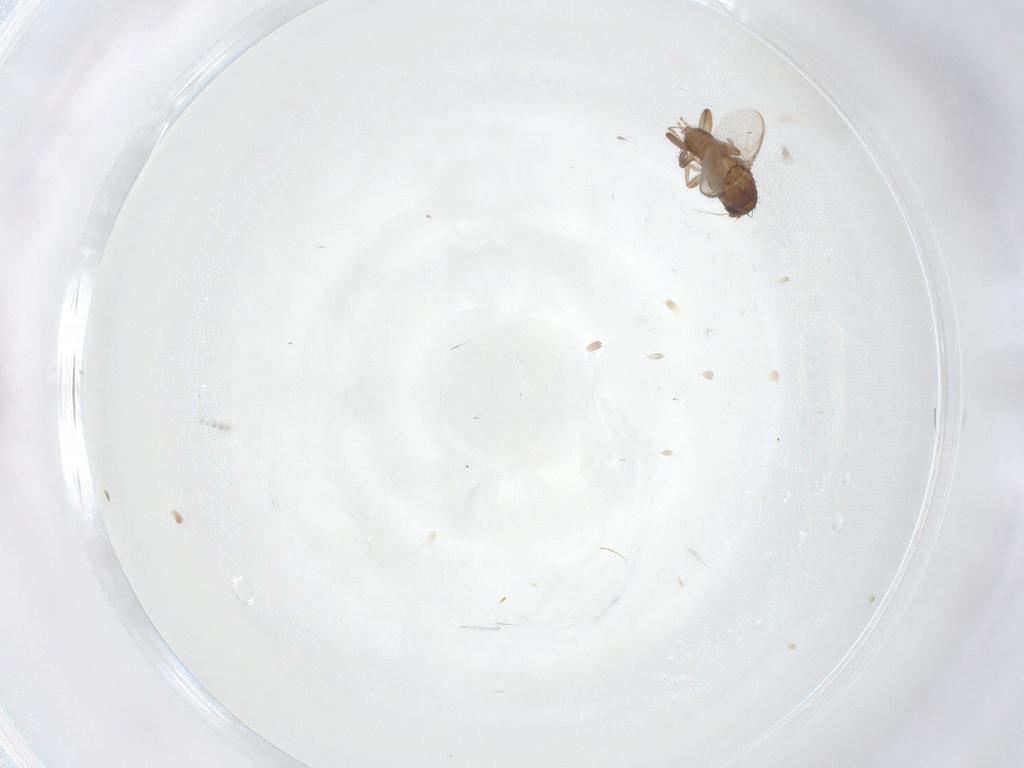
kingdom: Animalia
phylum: Arthropoda
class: Insecta
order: Diptera
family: Sphaeroceridae
